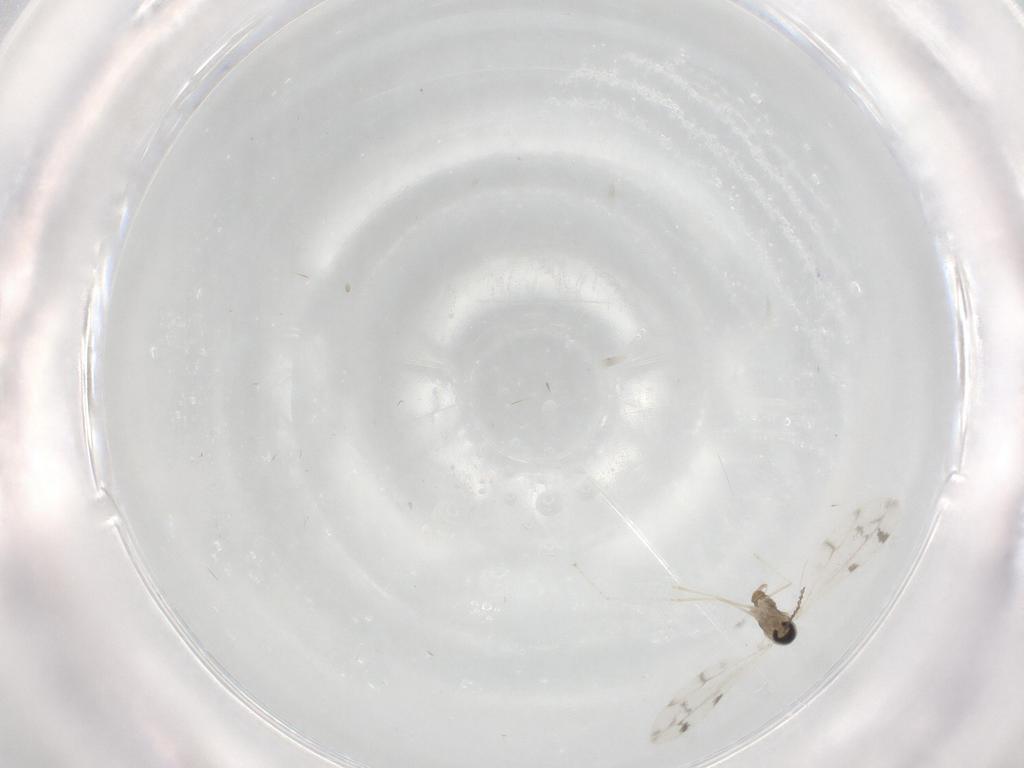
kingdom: Animalia
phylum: Arthropoda
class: Insecta
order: Diptera
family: Cecidomyiidae
